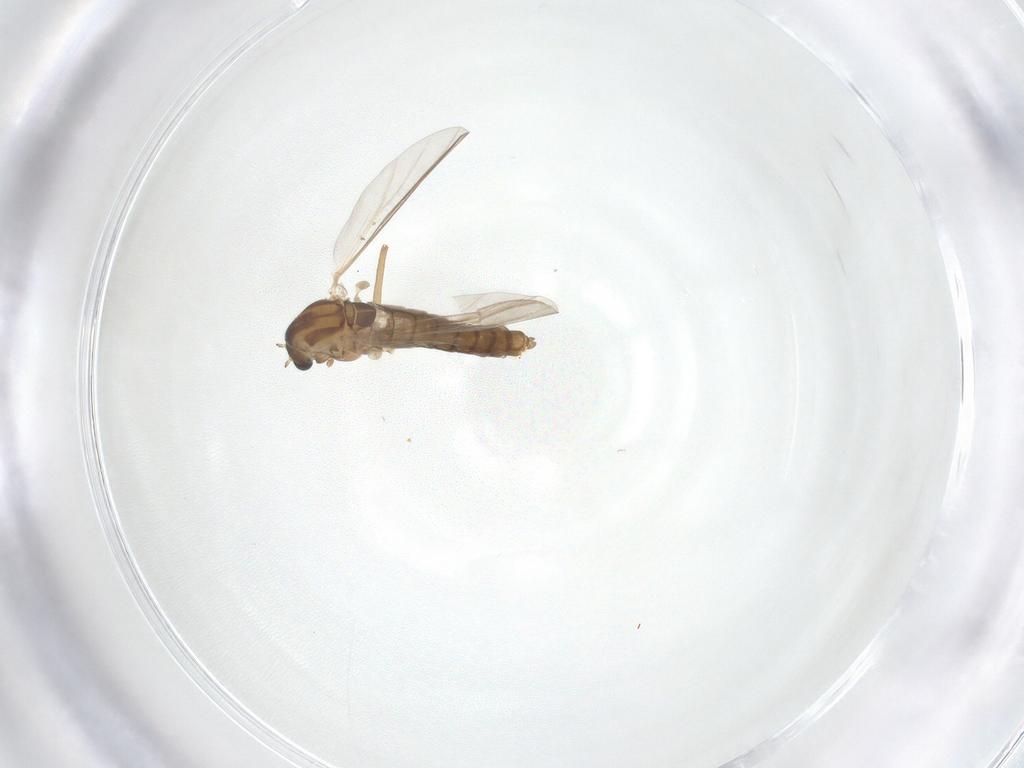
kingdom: Animalia
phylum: Arthropoda
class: Insecta
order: Diptera
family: Chironomidae
